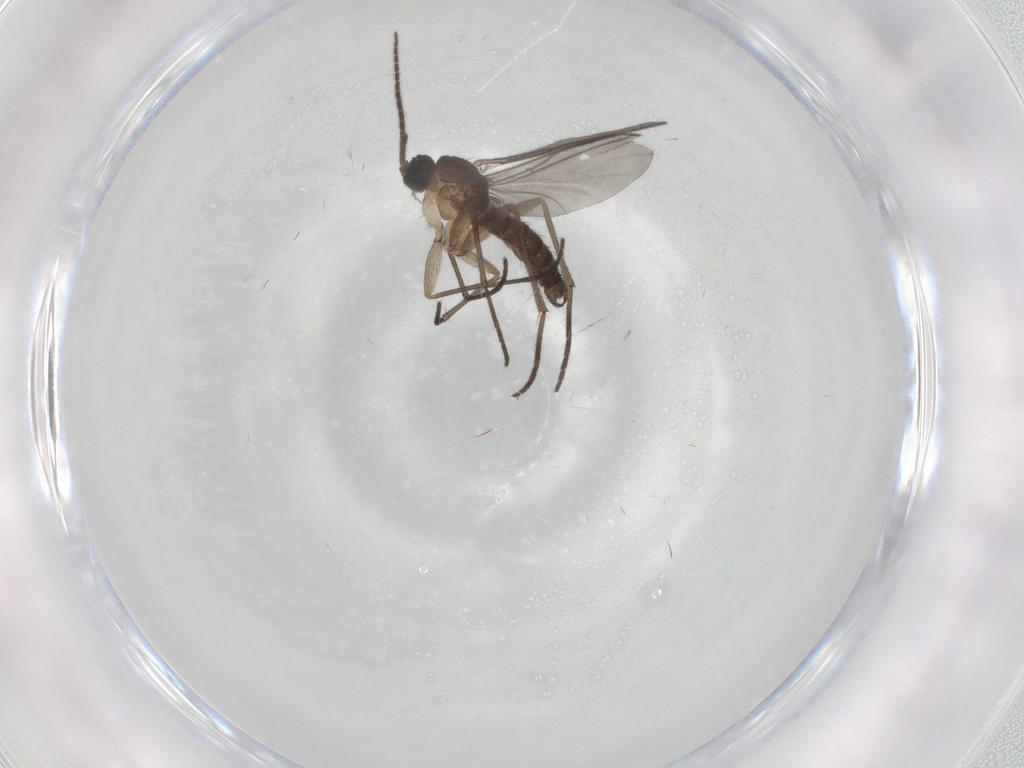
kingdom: Animalia
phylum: Arthropoda
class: Insecta
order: Diptera
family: Sciaridae
